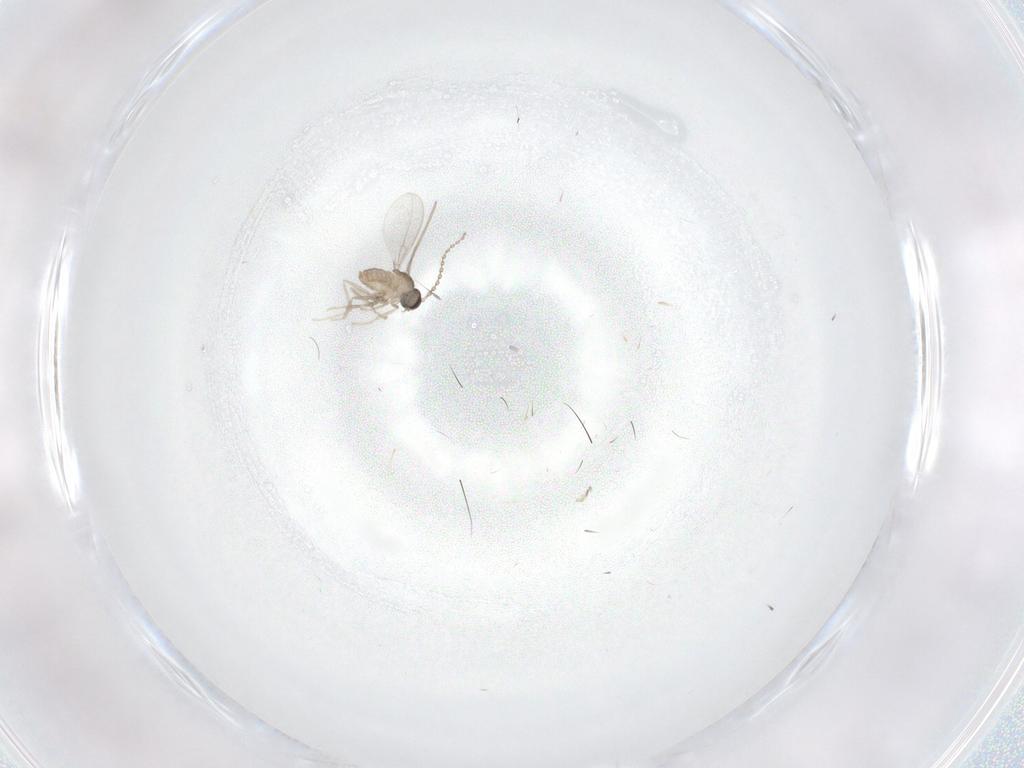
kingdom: Animalia
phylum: Arthropoda
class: Insecta
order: Diptera
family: Cecidomyiidae
